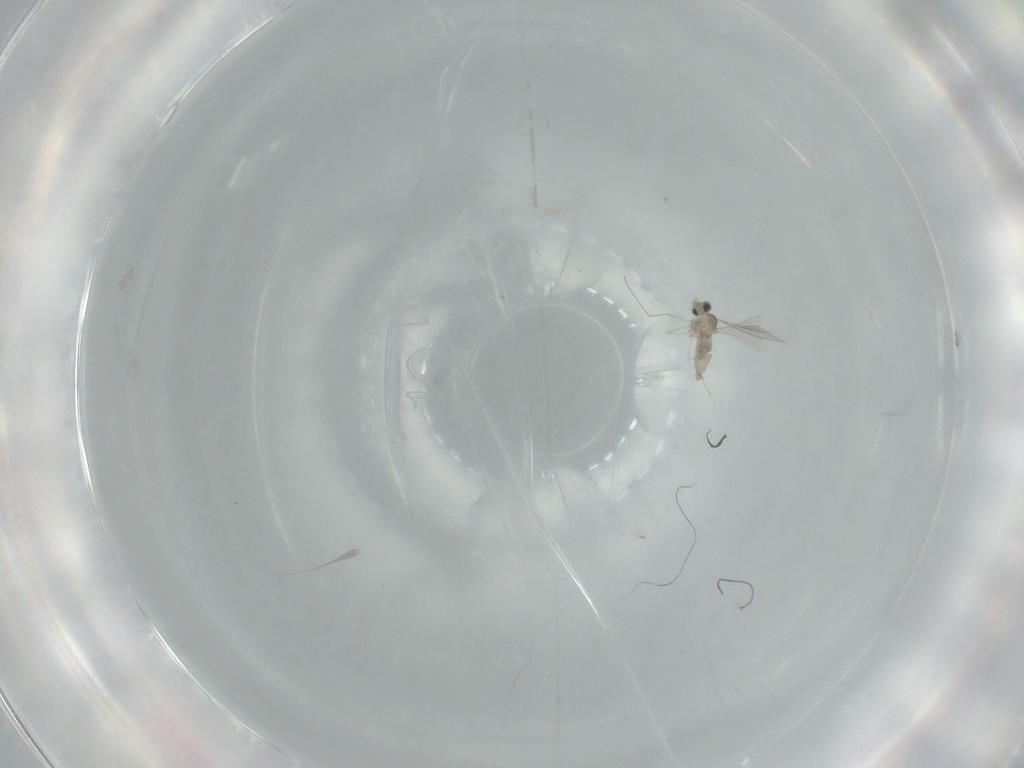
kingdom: Animalia
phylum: Arthropoda
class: Insecta
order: Diptera
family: Cecidomyiidae
